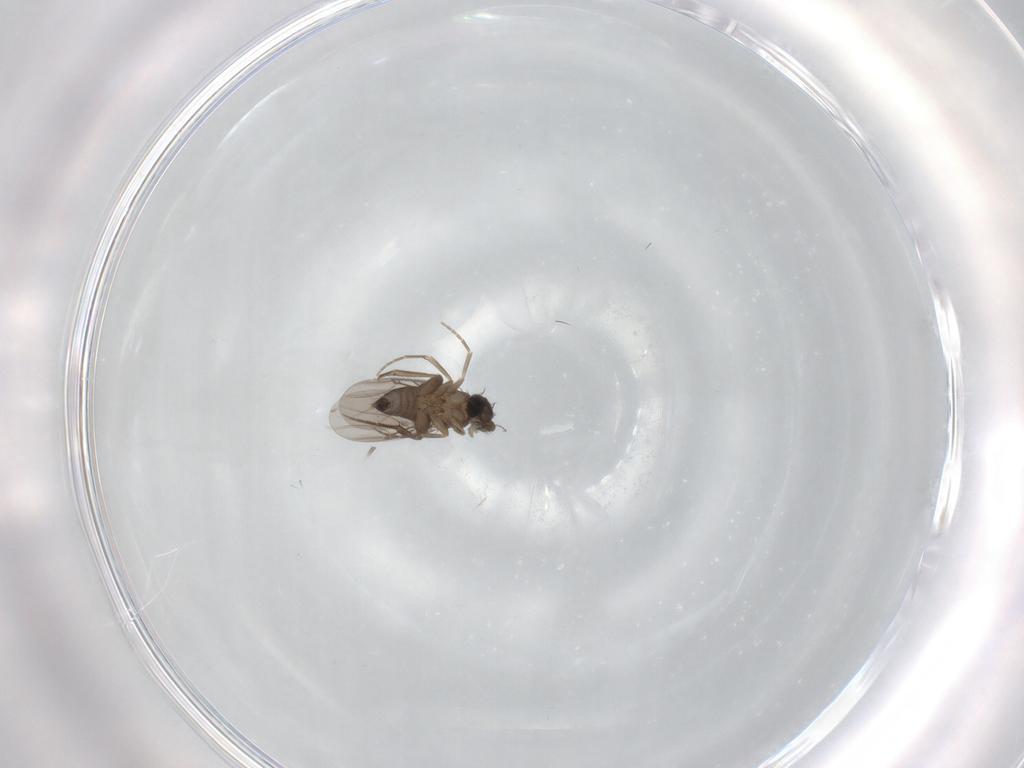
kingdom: Animalia
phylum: Arthropoda
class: Insecta
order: Diptera
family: Phoridae
